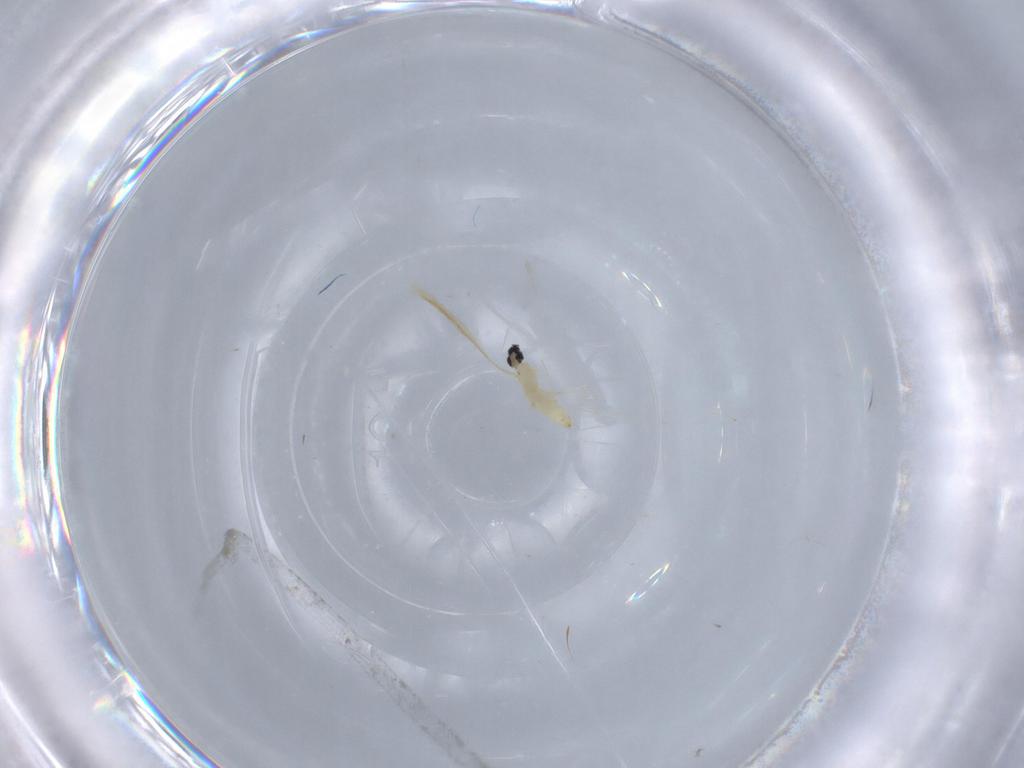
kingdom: Animalia
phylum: Arthropoda
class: Insecta
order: Diptera
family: Cecidomyiidae
